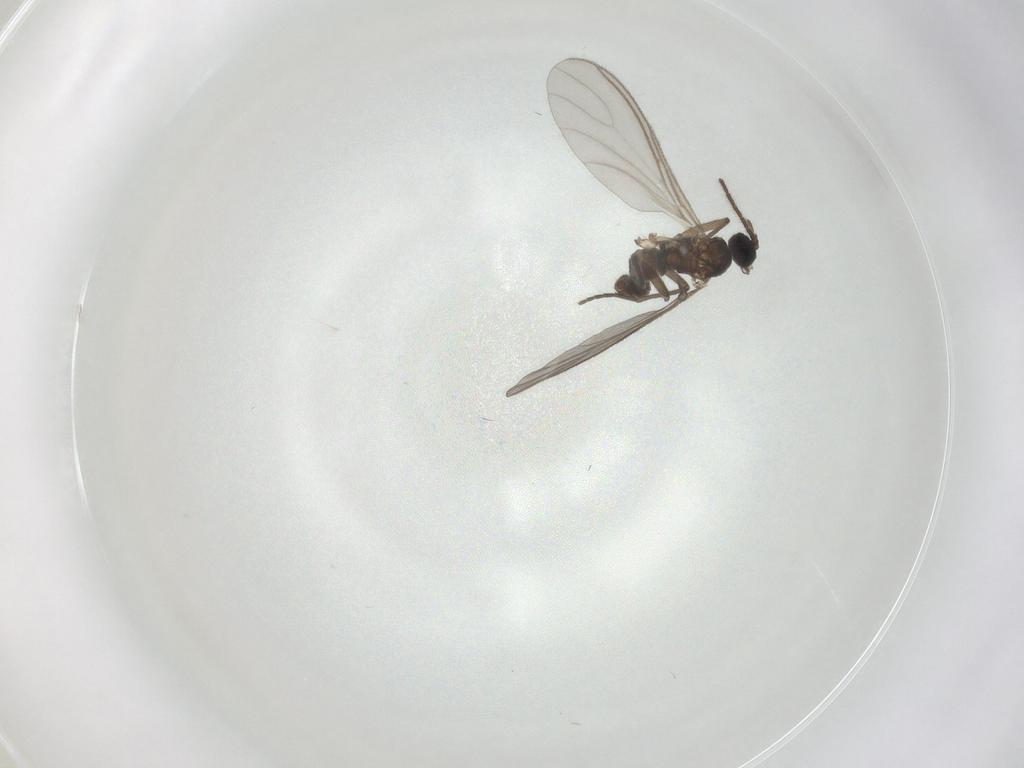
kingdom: Animalia
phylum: Arthropoda
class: Insecta
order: Diptera
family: Sciaridae
